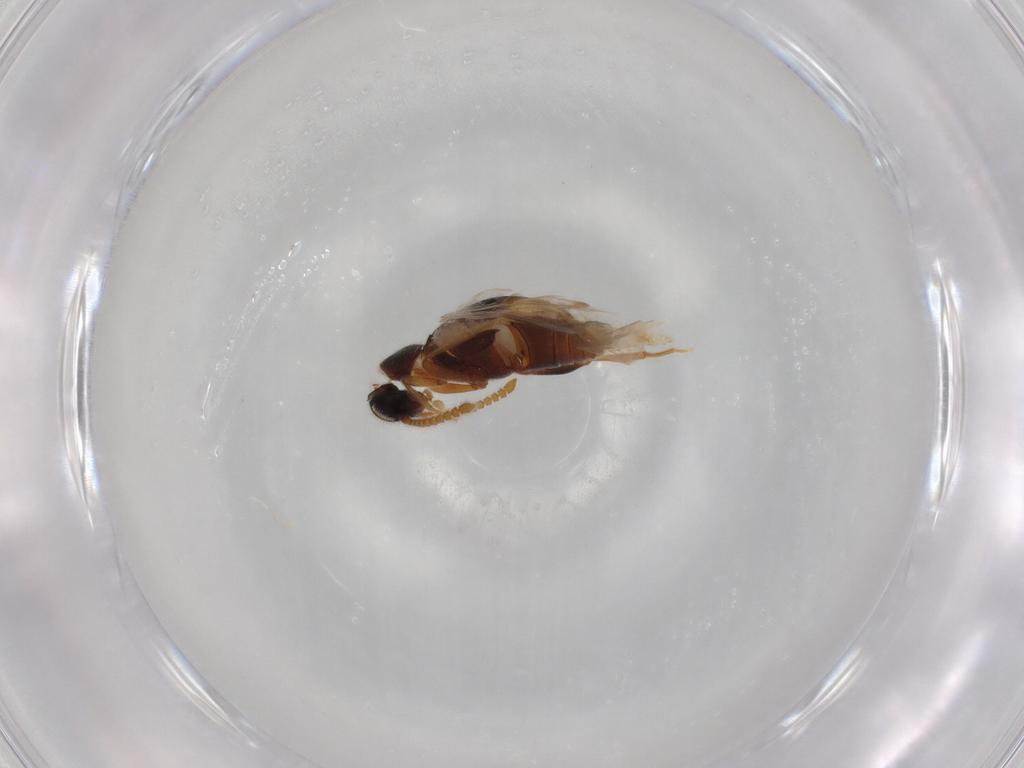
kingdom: Animalia
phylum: Arthropoda
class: Insecta
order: Coleoptera
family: Aderidae
